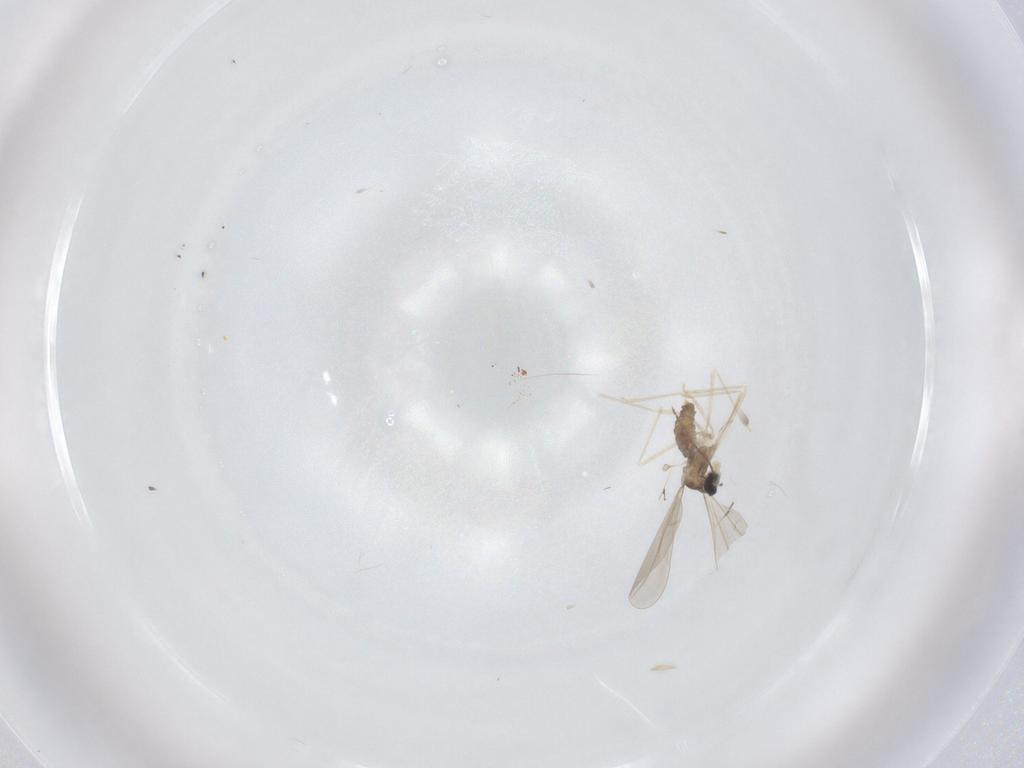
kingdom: Animalia
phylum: Arthropoda
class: Insecta
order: Diptera
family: Cecidomyiidae
